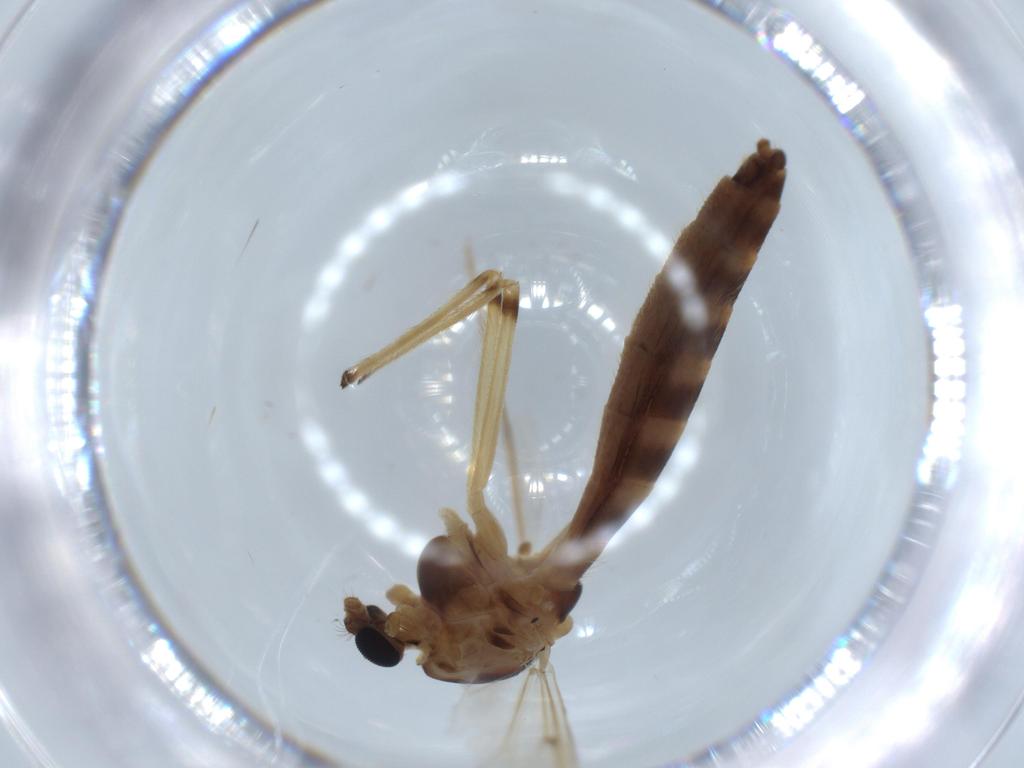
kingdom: Animalia
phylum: Arthropoda
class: Insecta
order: Diptera
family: Chironomidae
